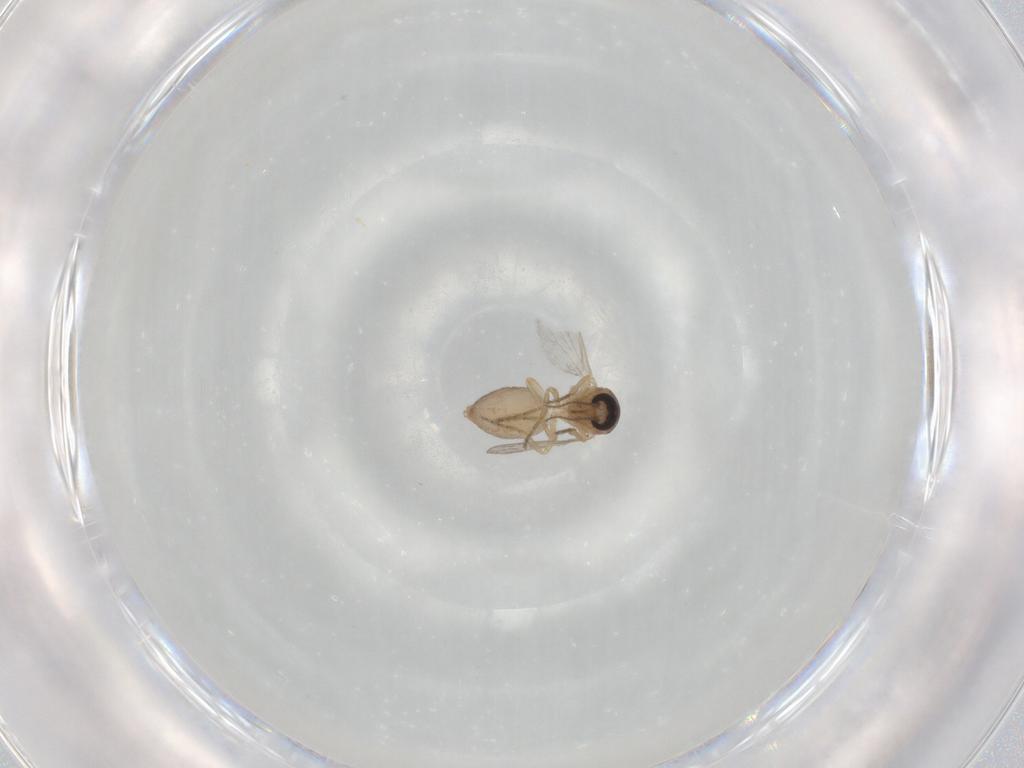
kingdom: Animalia
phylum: Arthropoda
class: Insecta
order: Diptera
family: Ceratopogonidae
